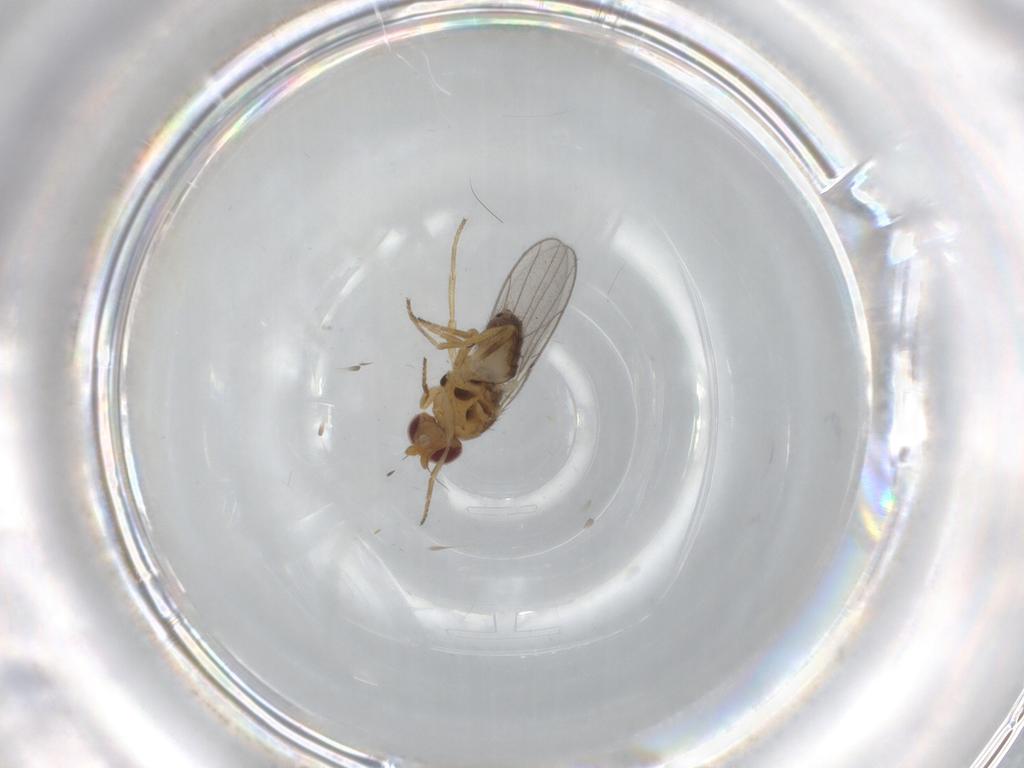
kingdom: Animalia
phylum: Arthropoda
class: Insecta
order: Diptera
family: Chloropidae
